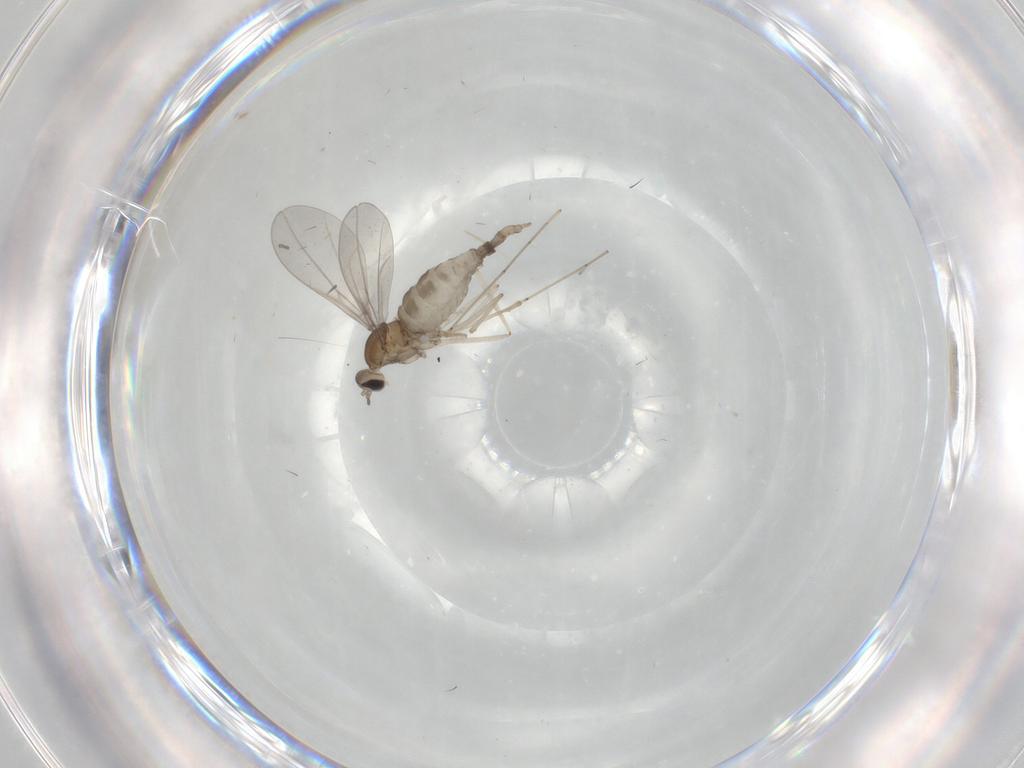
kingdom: Animalia
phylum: Arthropoda
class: Insecta
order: Diptera
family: Cecidomyiidae
